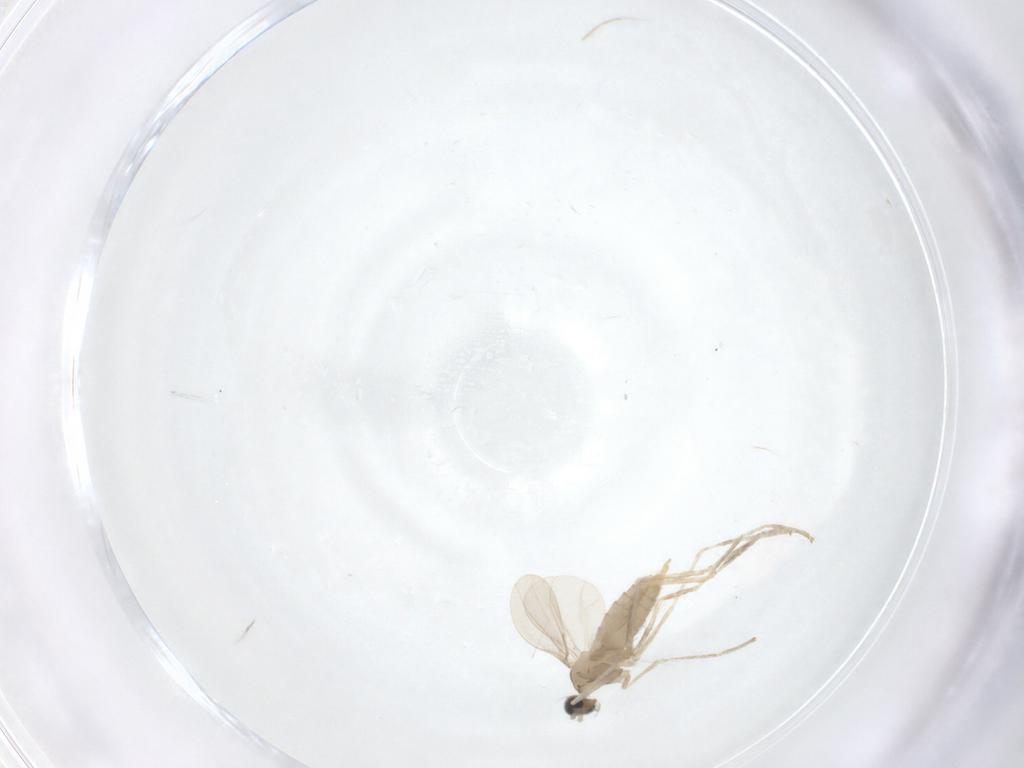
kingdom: Animalia
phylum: Arthropoda
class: Insecta
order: Diptera
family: Cecidomyiidae
